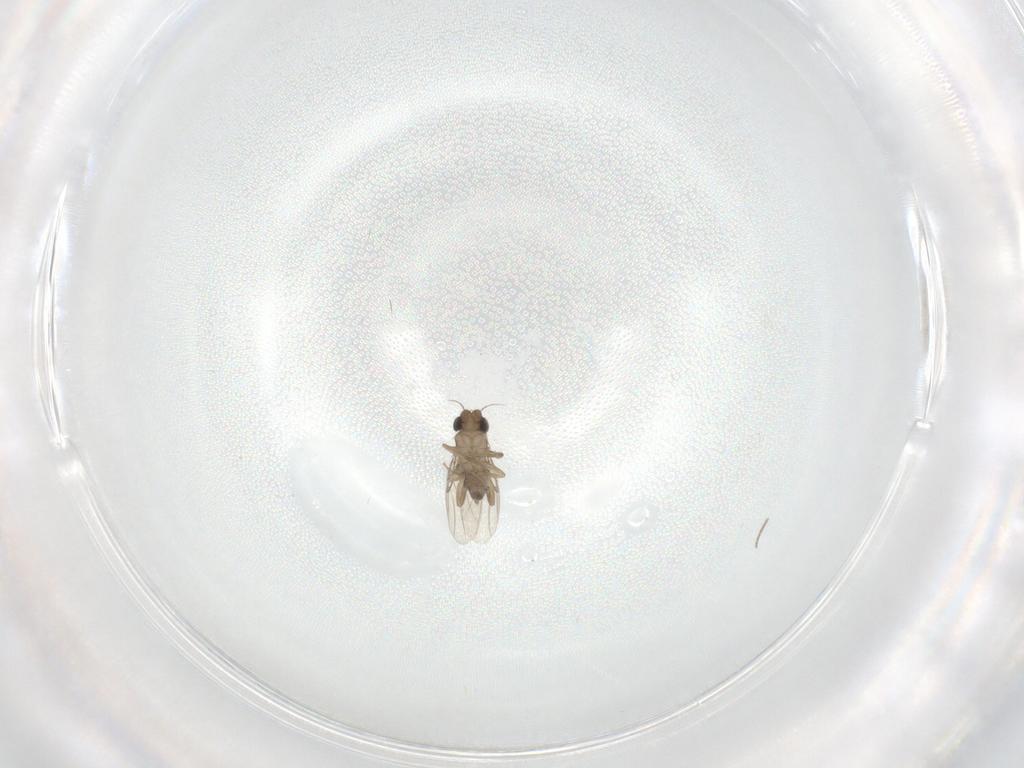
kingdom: Animalia
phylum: Arthropoda
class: Insecta
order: Diptera
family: Phoridae
